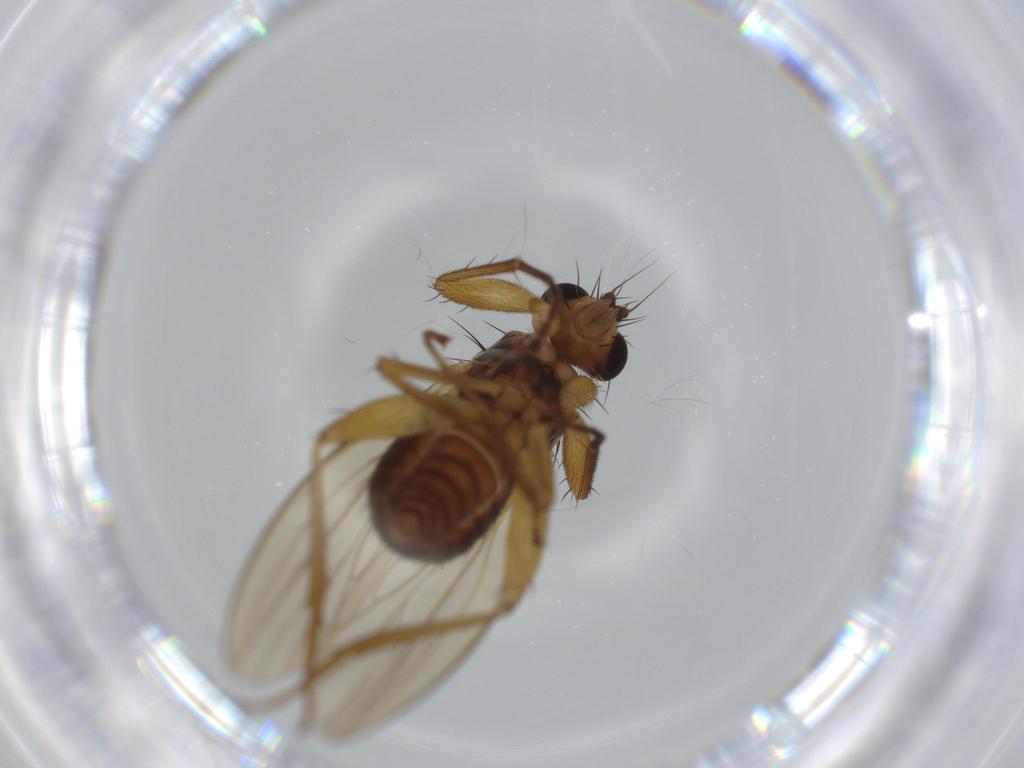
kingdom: Animalia
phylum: Arthropoda
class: Insecta
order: Diptera
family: Lonchopteridae
